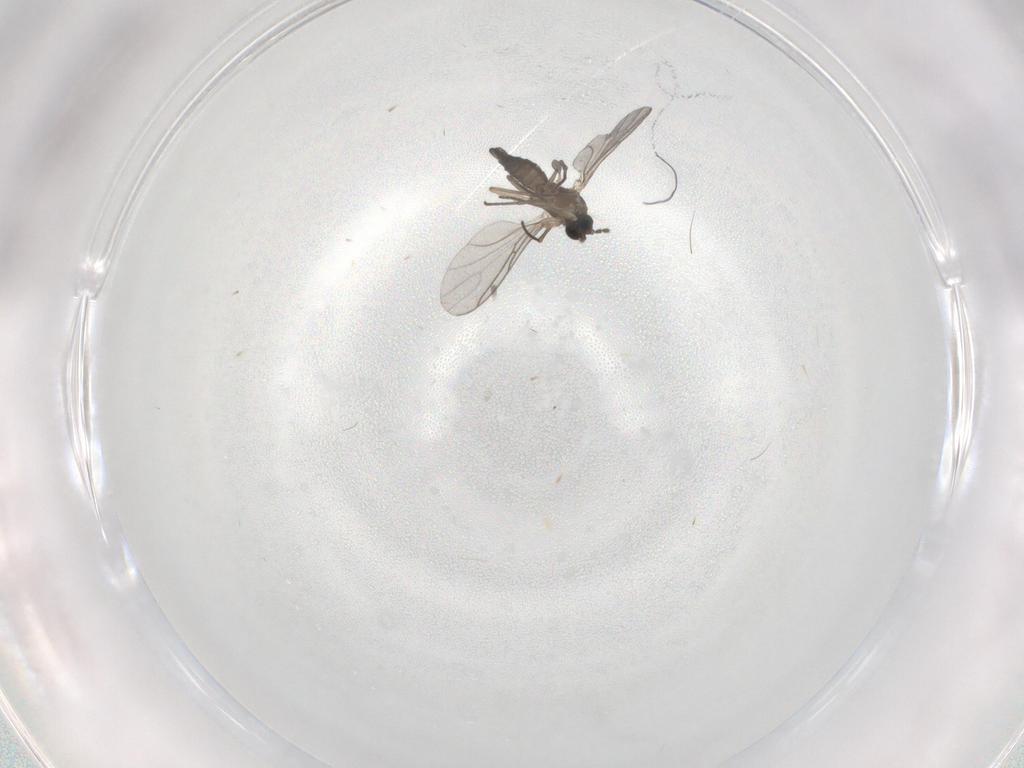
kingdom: Animalia
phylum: Arthropoda
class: Insecta
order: Diptera
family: Sciaridae
